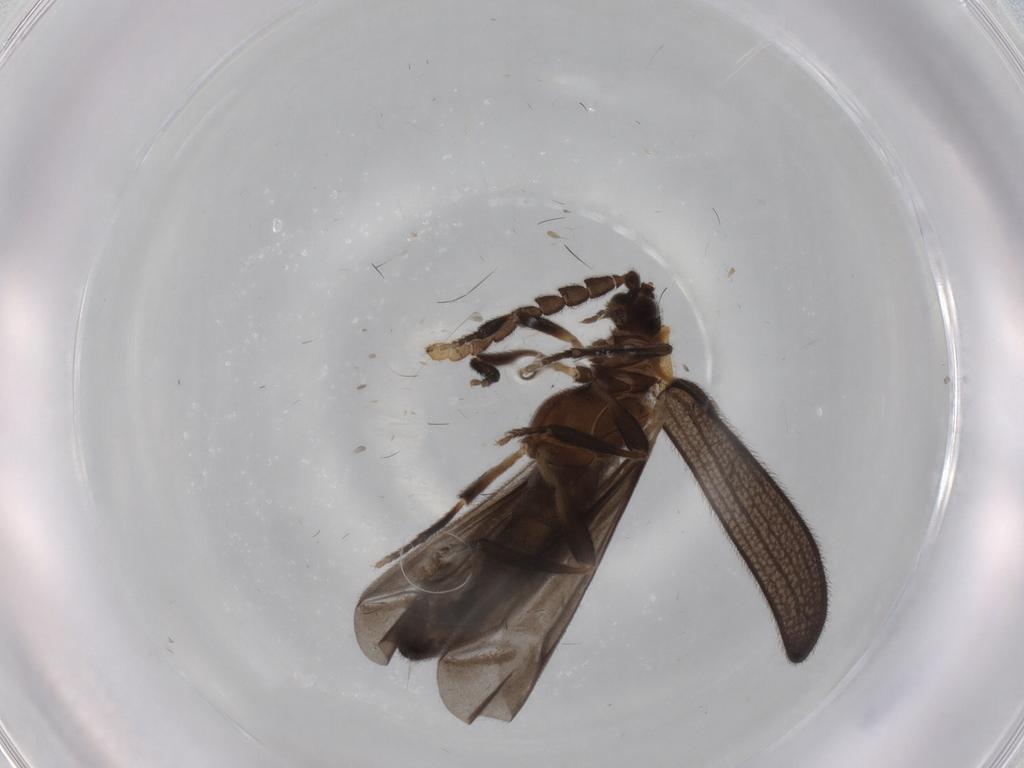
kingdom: Animalia
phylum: Arthropoda
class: Insecta
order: Coleoptera
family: Lycidae
